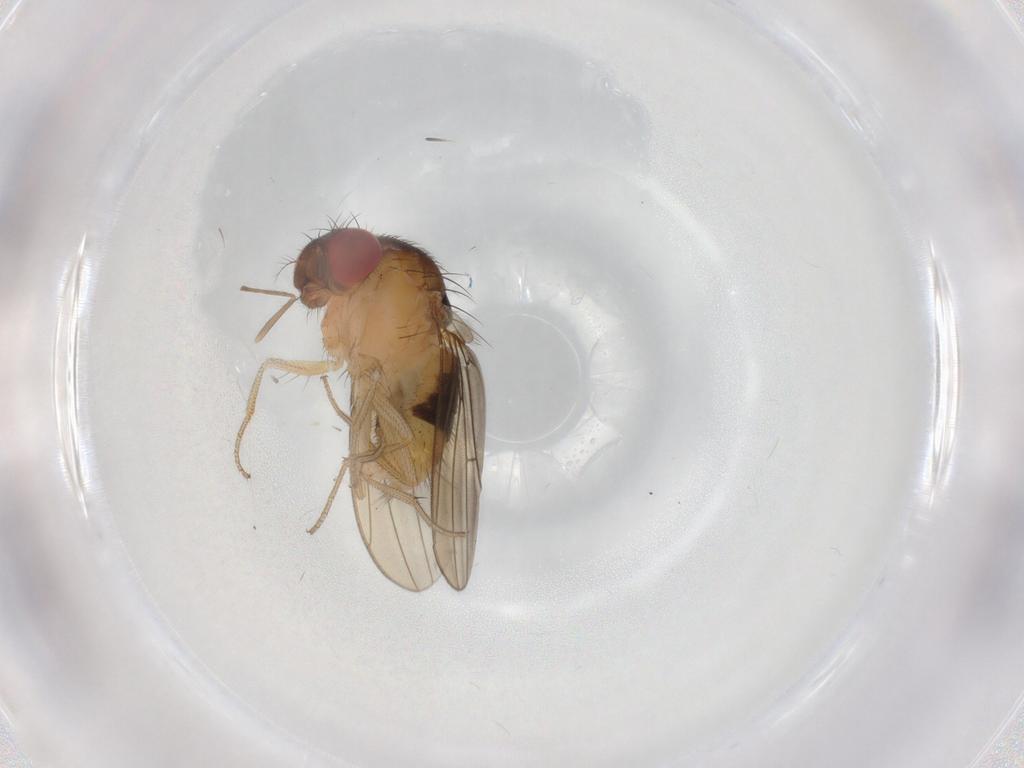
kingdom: Animalia
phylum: Arthropoda
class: Insecta
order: Diptera
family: Drosophilidae
